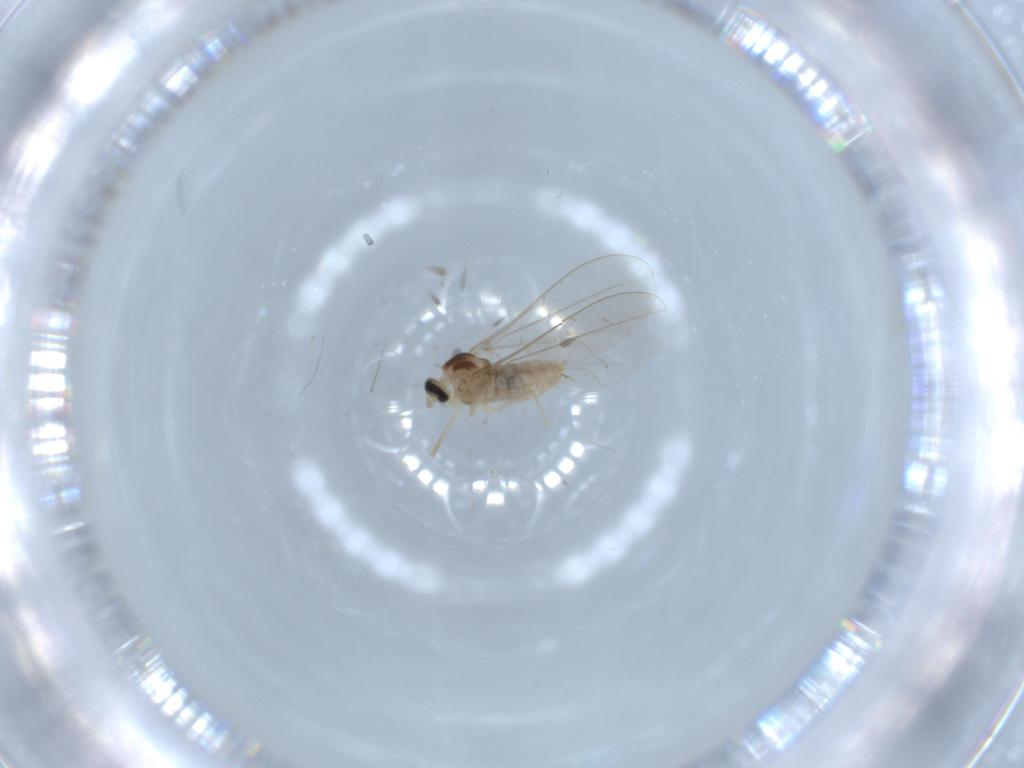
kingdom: Animalia
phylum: Arthropoda
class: Insecta
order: Diptera
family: Cecidomyiidae
